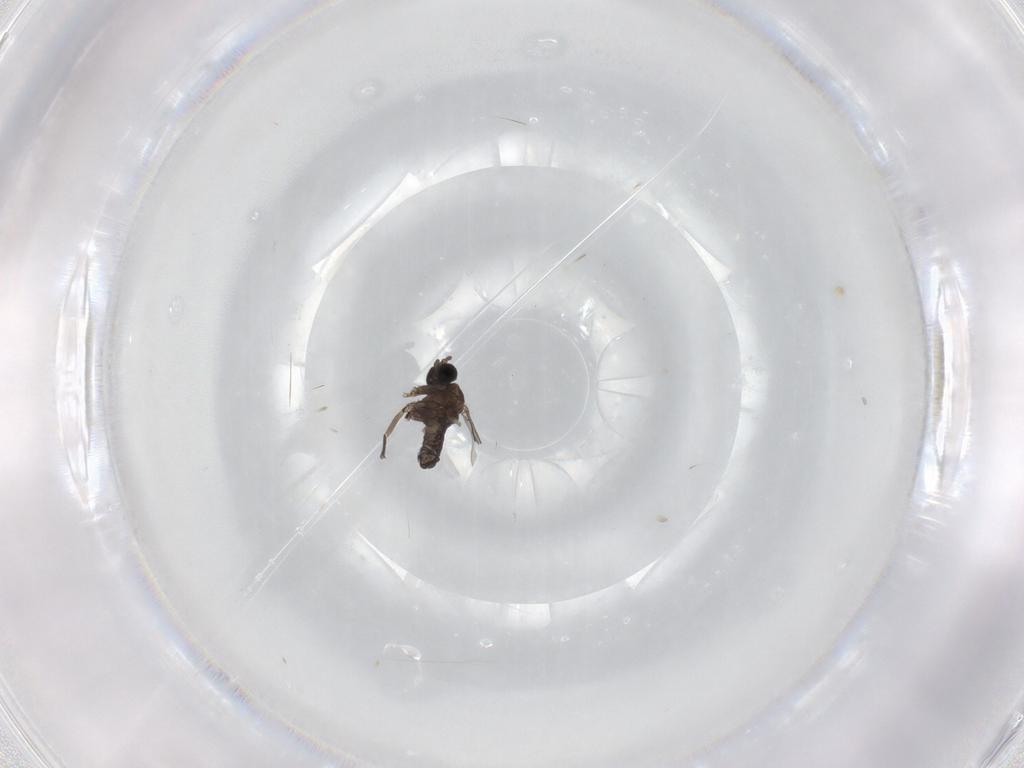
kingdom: Animalia
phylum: Arthropoda
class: Insecta
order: Diptera
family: Sciaridae
